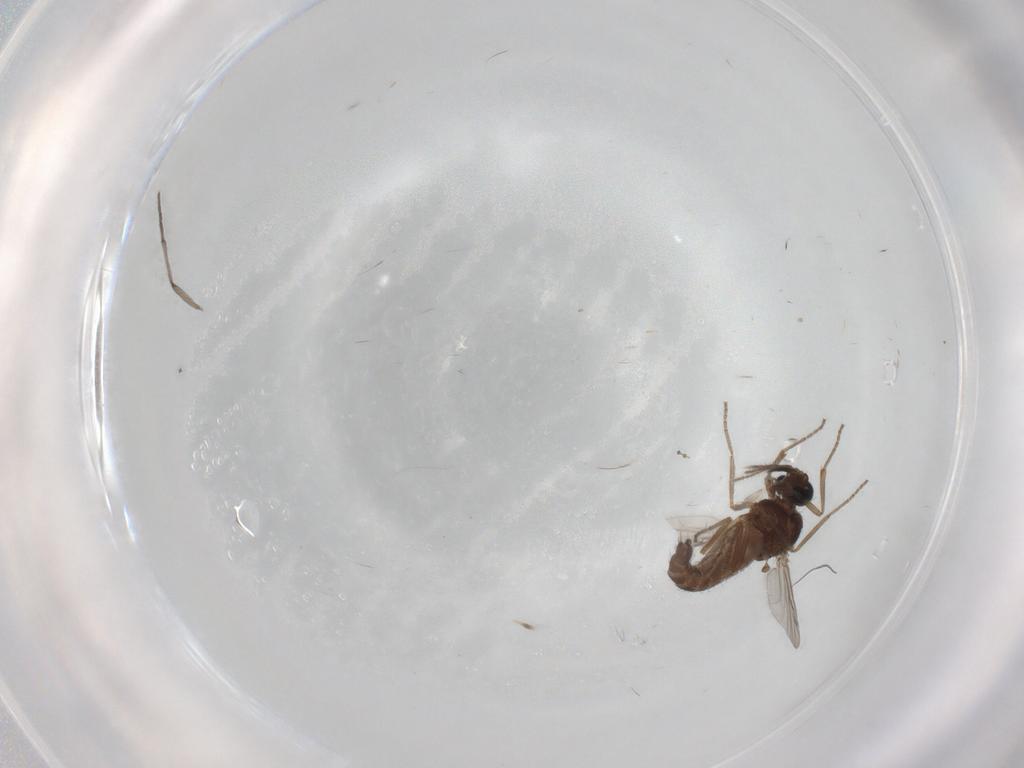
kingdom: Animalia
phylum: Arthropoda
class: Insecta
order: Diptera
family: Ceratopogonidae
